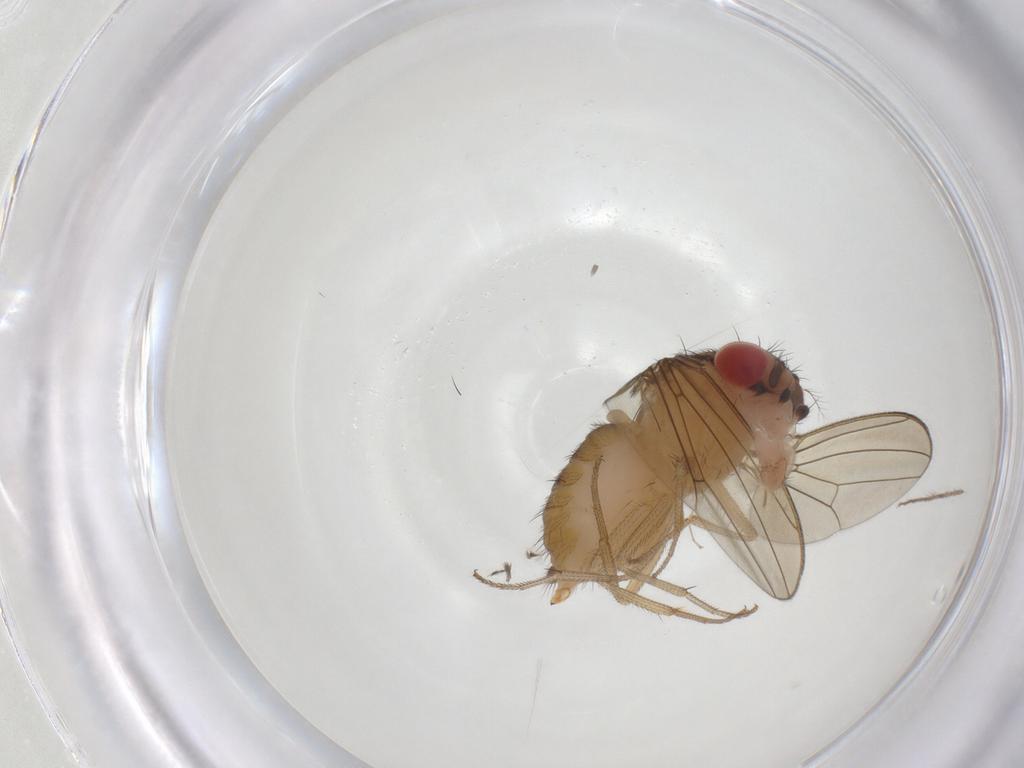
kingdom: Animalia
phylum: Arthropoda
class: Insecta
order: Diptera
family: Drosophilidae
